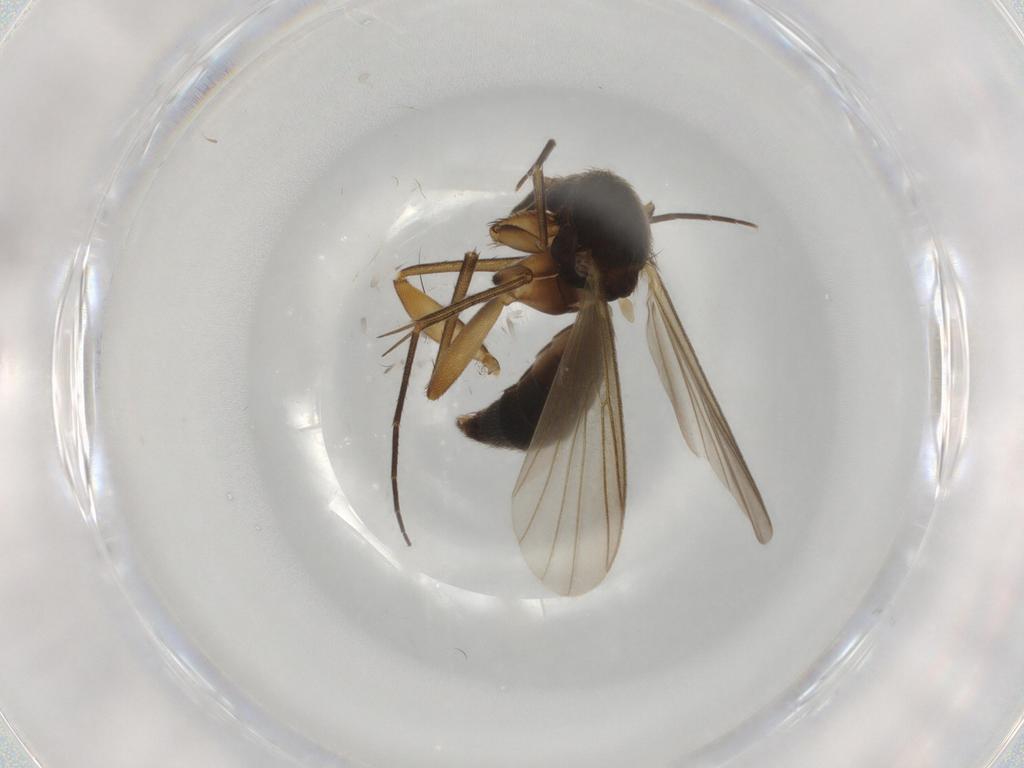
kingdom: Animalia
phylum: Arthropoda
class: Insecta
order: Diptera
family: Mycetophilidae
